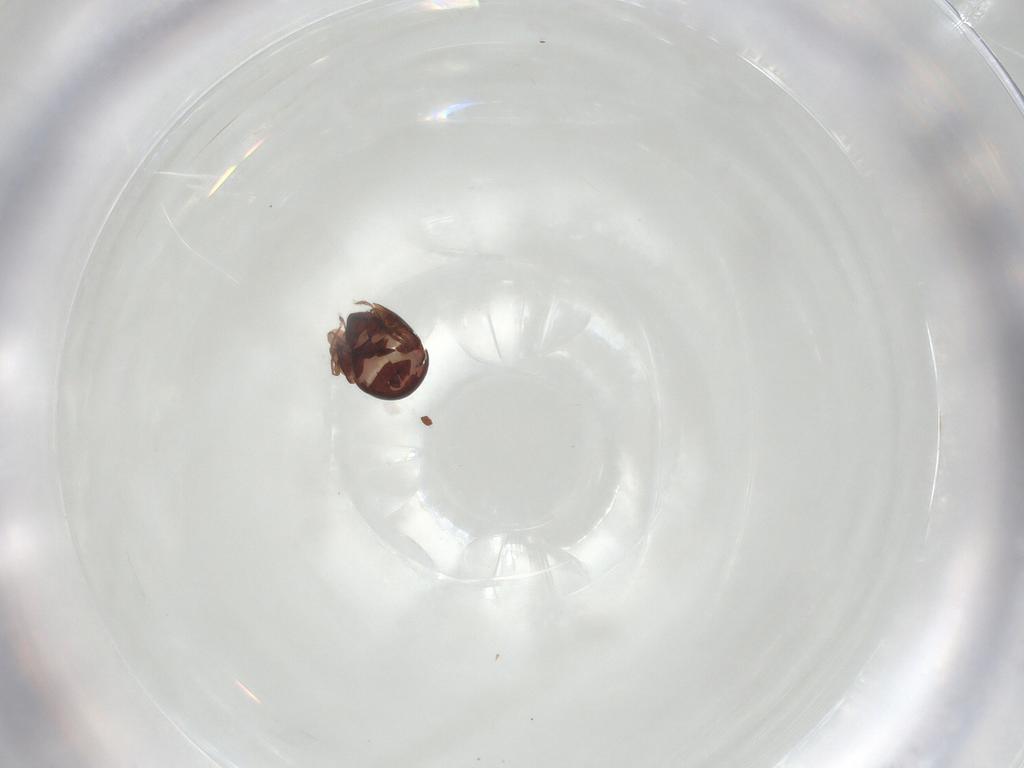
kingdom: Animalia
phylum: Arthropoda
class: Arachnida
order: Sarcoptiformes
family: Galumnidae
